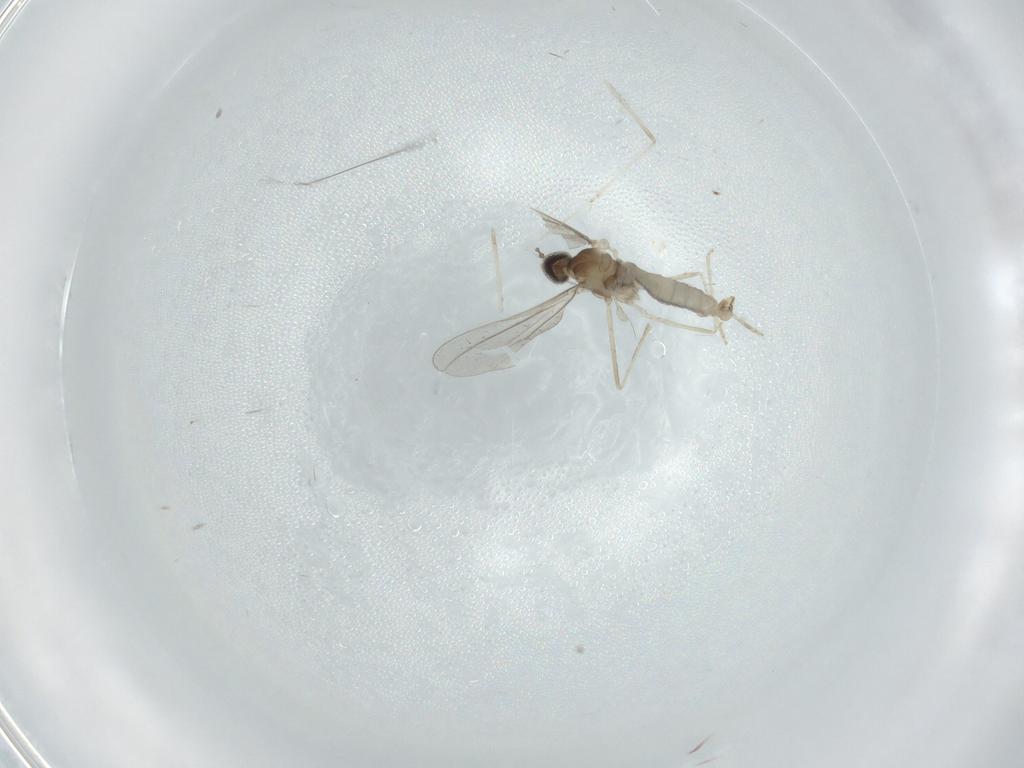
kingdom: Animalia
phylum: Arthropoda
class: Insecta
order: Diptera
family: Cecidomyiidae
